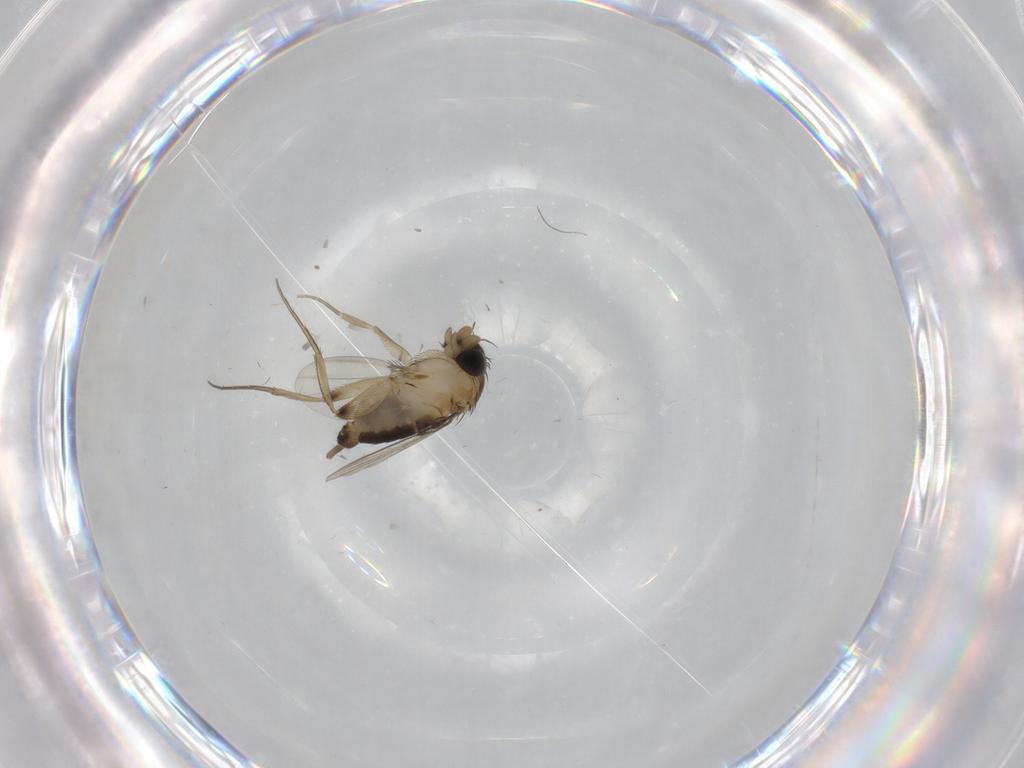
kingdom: Animalia
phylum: Arthropoda
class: Insecta
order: Diptera
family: Phoridae
